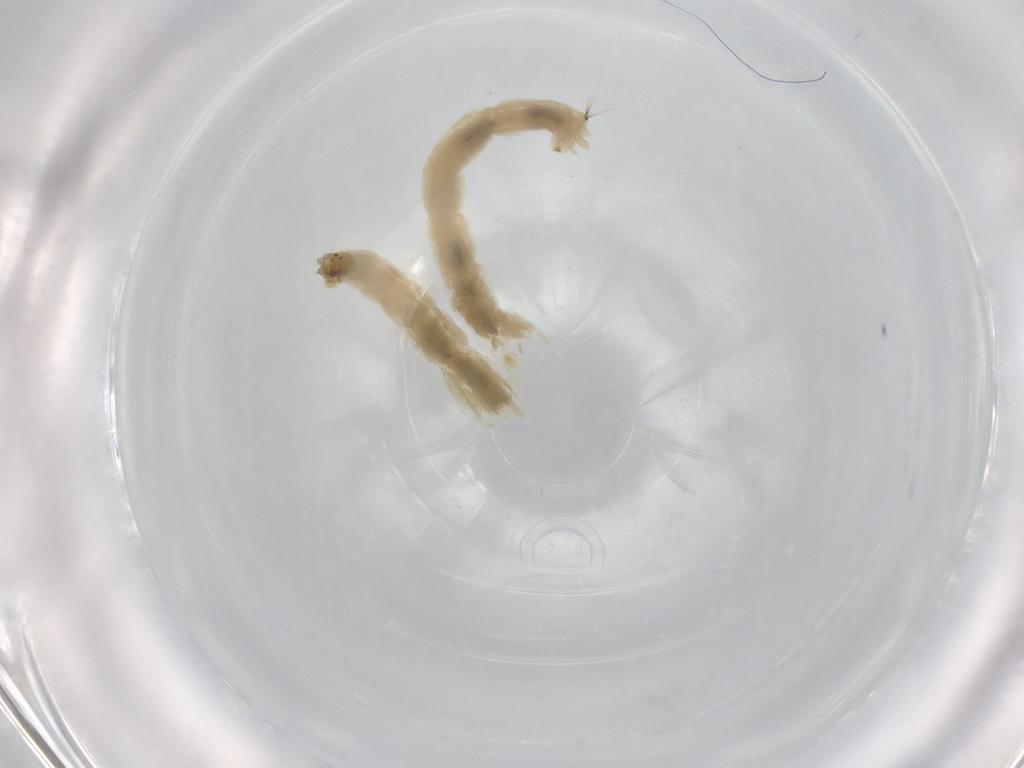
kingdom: Animalia
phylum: Arthropoda
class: Insecta
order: Diptera
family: Chironomidae
